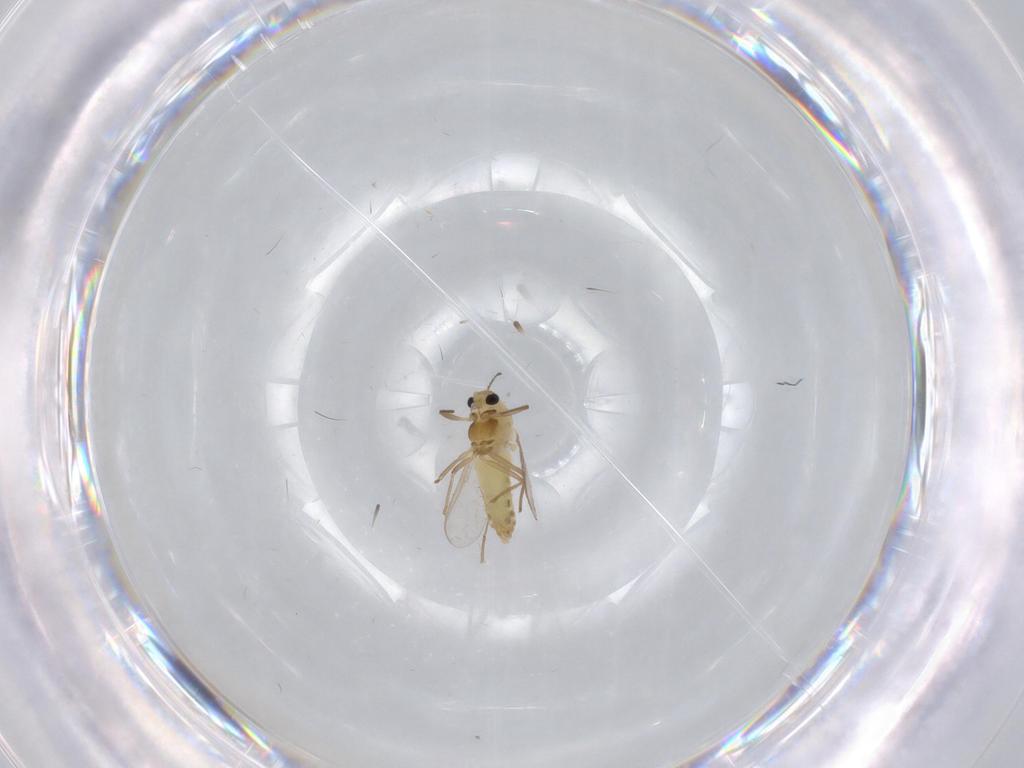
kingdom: Animalia
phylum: Arthropoda
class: Insecta
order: Diptera
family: Chironomidae
